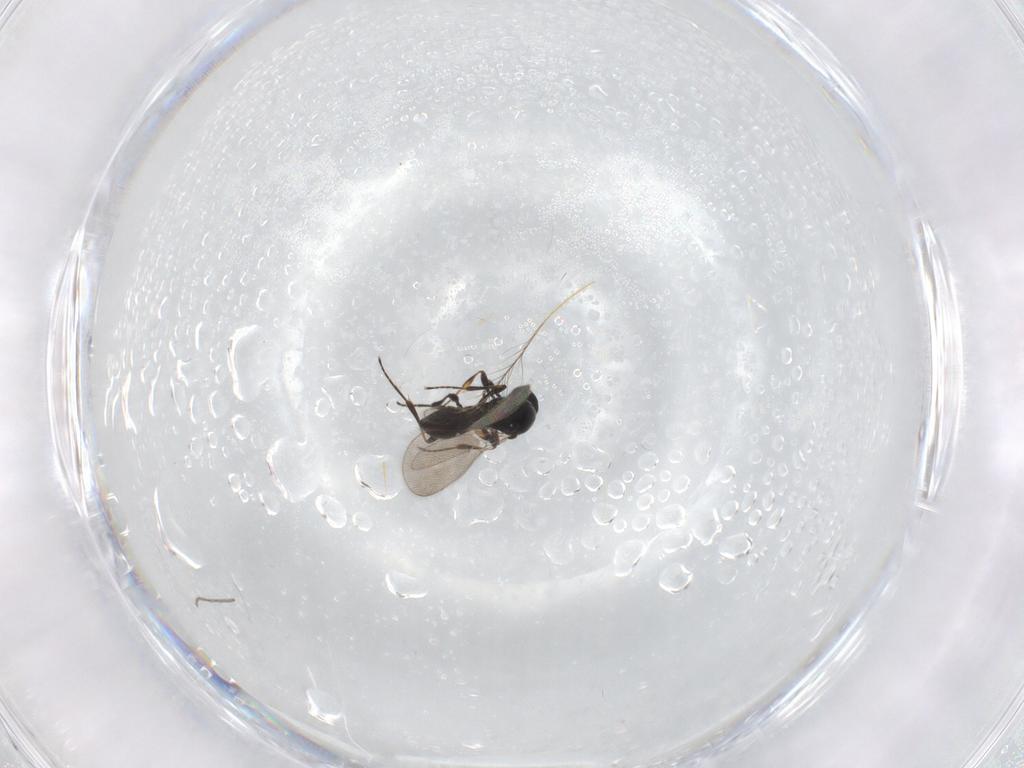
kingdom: Animalia
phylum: Arthropoda
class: Insecta
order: Hymenoptera
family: Platygastridae
